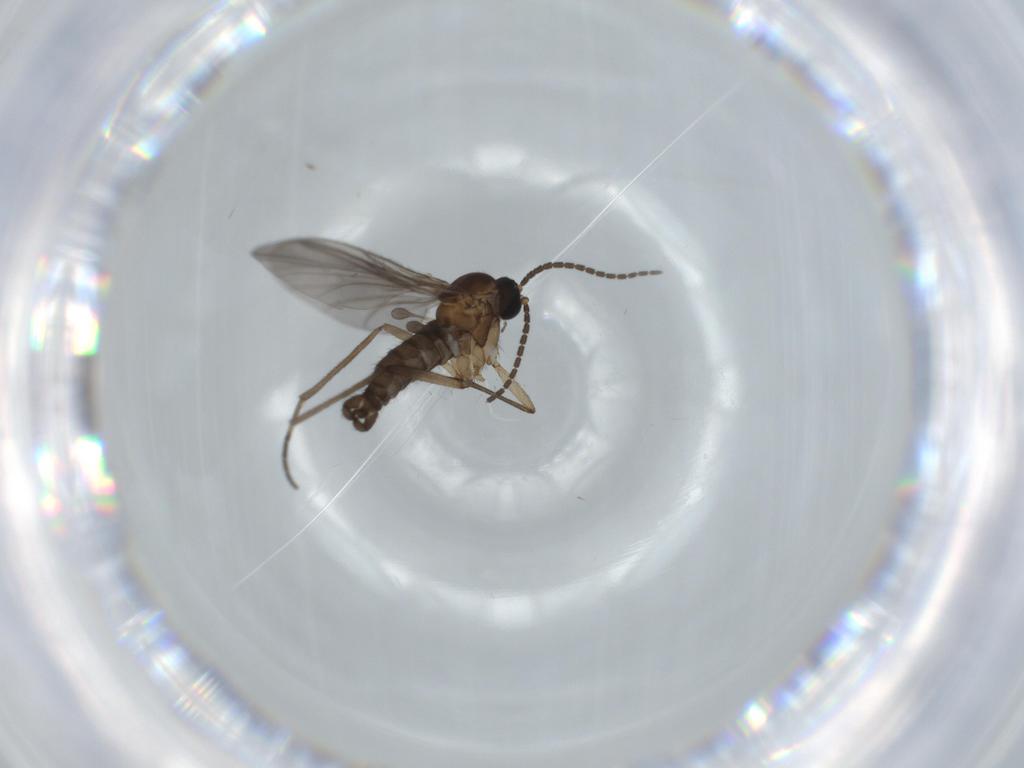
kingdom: Animalia
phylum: Arthropoda
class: Insecta
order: Diptera
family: Sciaridae
